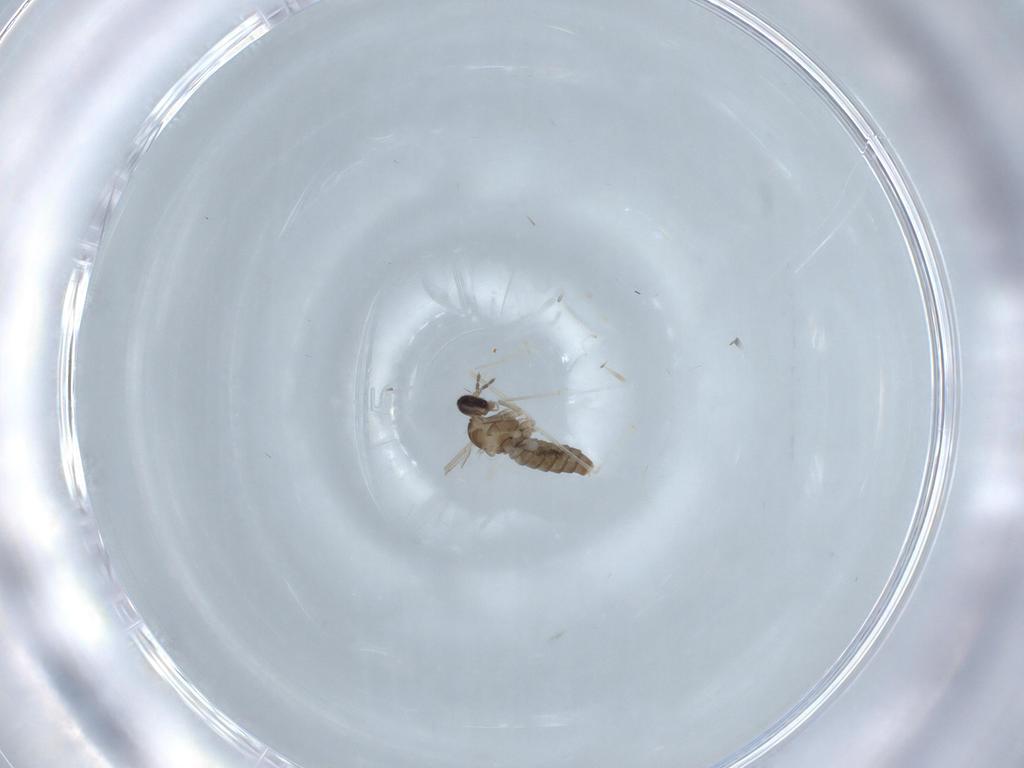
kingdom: Animalia
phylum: Arthropoda
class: Insecta
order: Diptera
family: Cecidomyiidae
